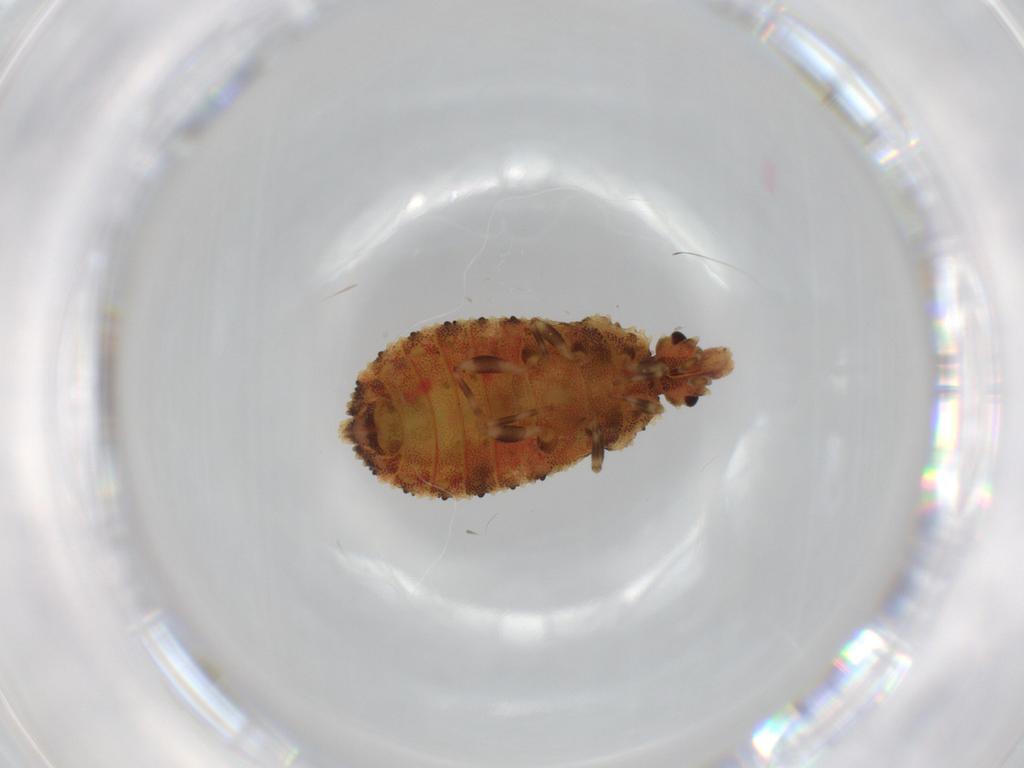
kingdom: Animalia
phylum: Arthropoda
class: Insecta
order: Hemiptera
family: Aradidae
